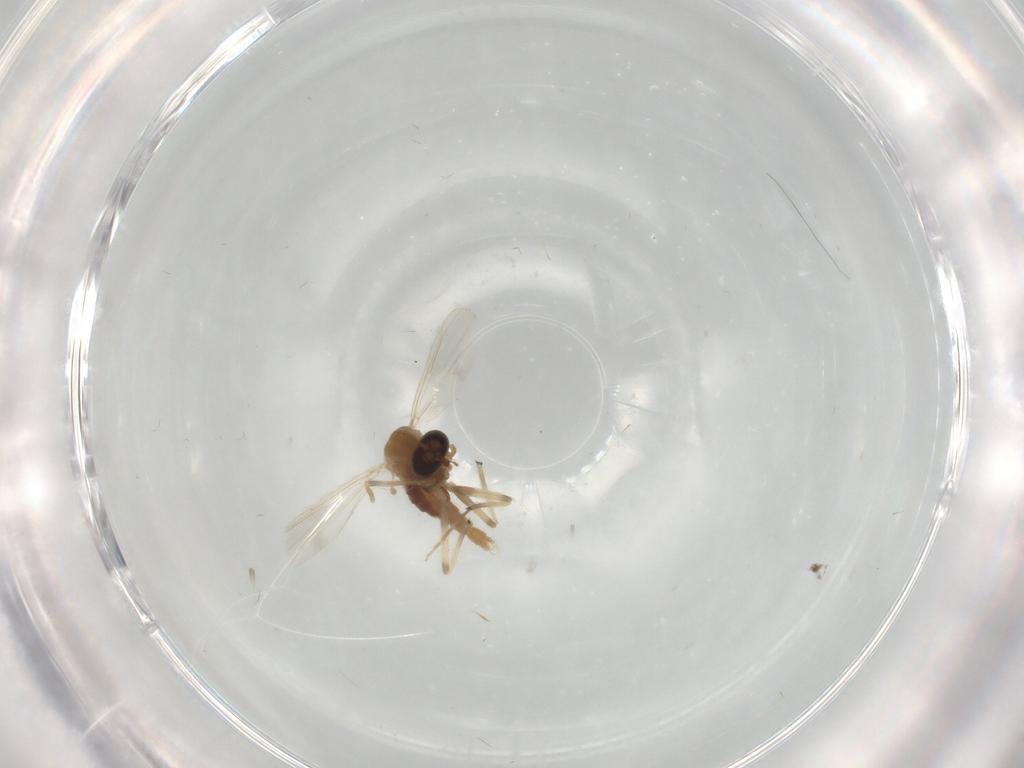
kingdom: Animalia
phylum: Arthropoda
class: Insecta
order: Diptera
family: Chironomidae
